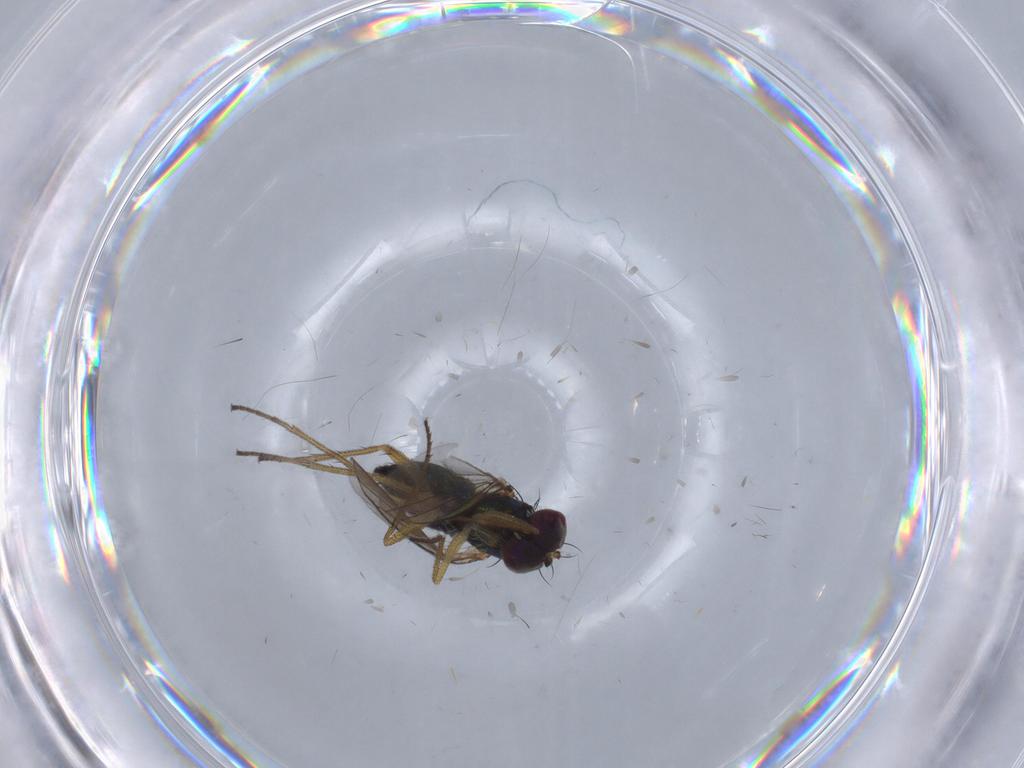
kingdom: Animalia
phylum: Arthropoda
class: Insecta
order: Diptera
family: Dolichopodidae
